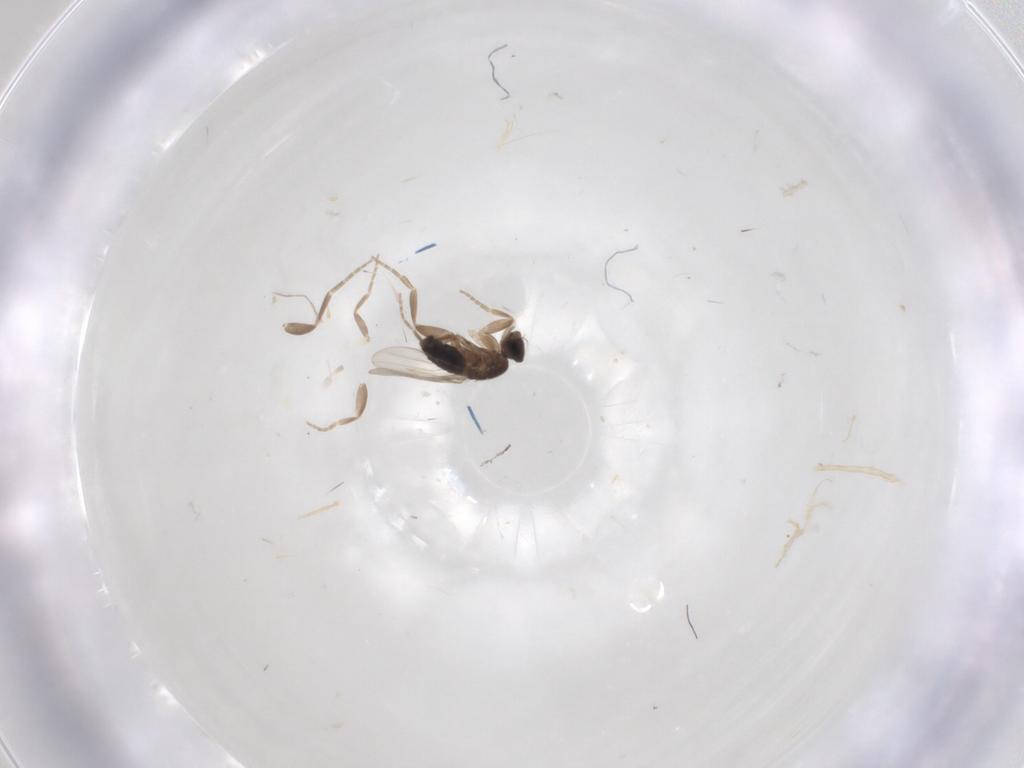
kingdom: Animalia
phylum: Arthropoda
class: Insecta
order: Diptera
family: Phoridae
